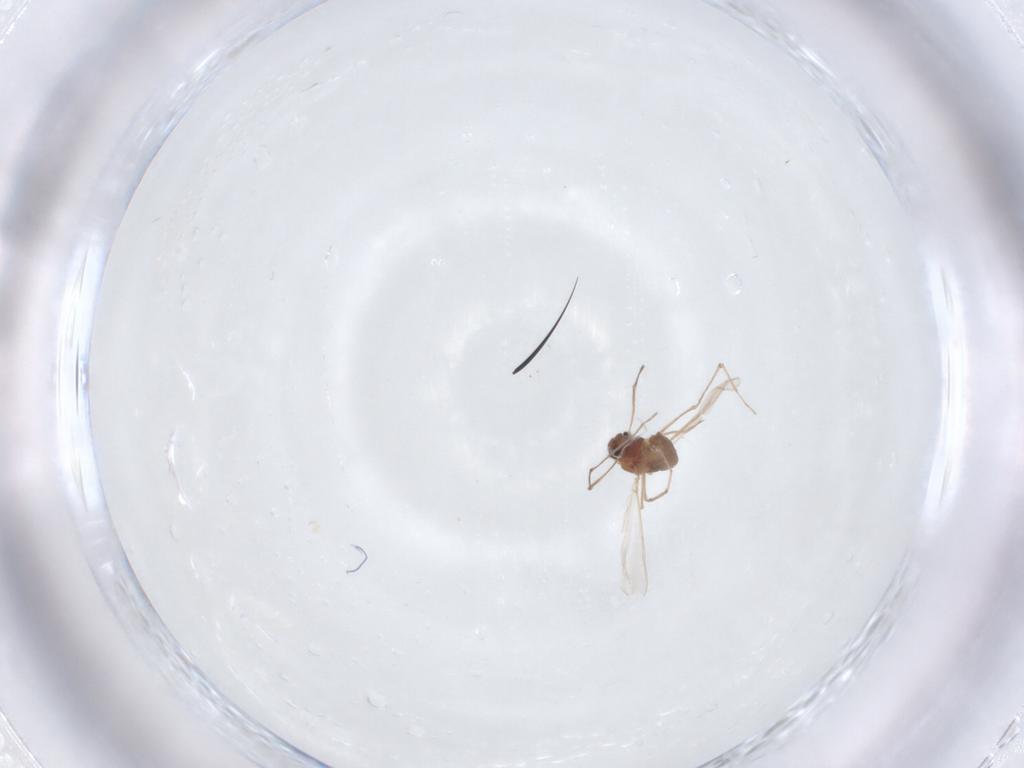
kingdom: Animalia
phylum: Arthropoda
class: Insecta
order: Diptera
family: Chironomidae
